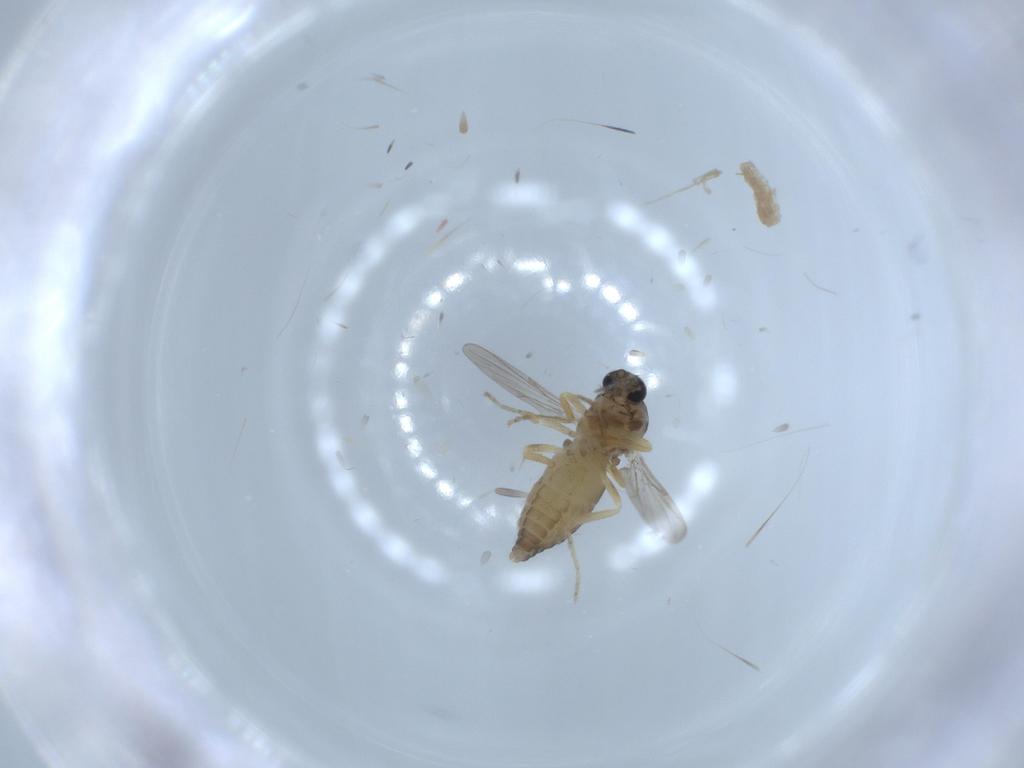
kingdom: Animalia
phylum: Arthropoda
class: Insecta
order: Diptera
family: Ceratopogonidae
